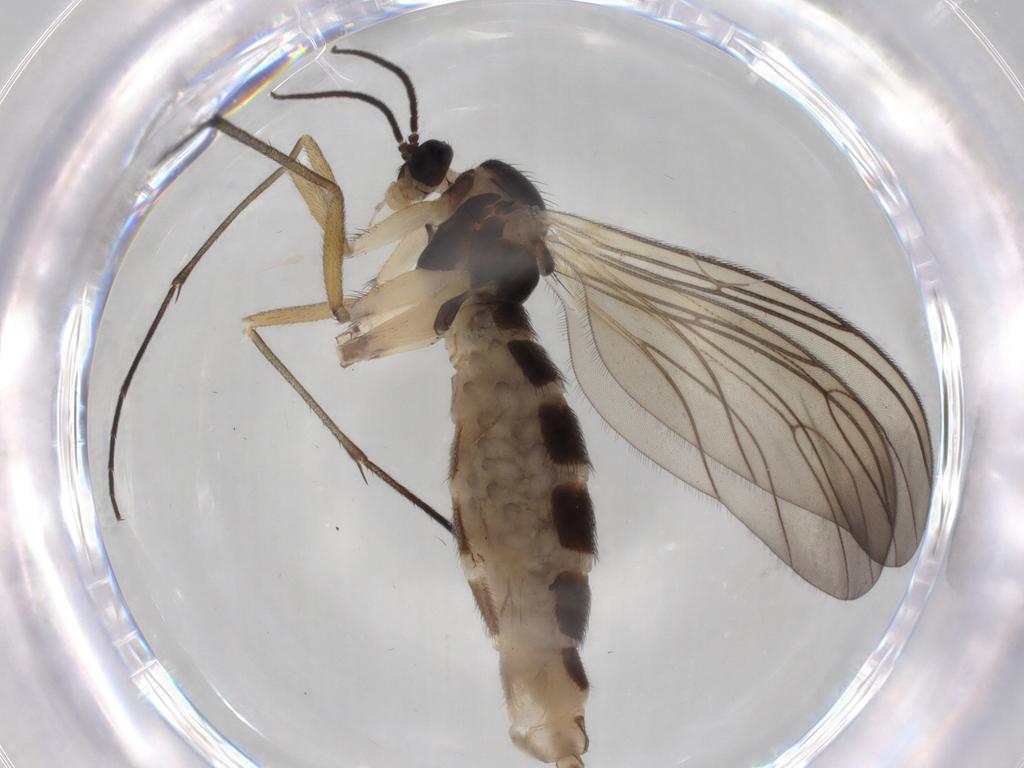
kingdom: Animalia
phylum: Arthropoda
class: Insecta
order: Diptera
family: Sciaridae
